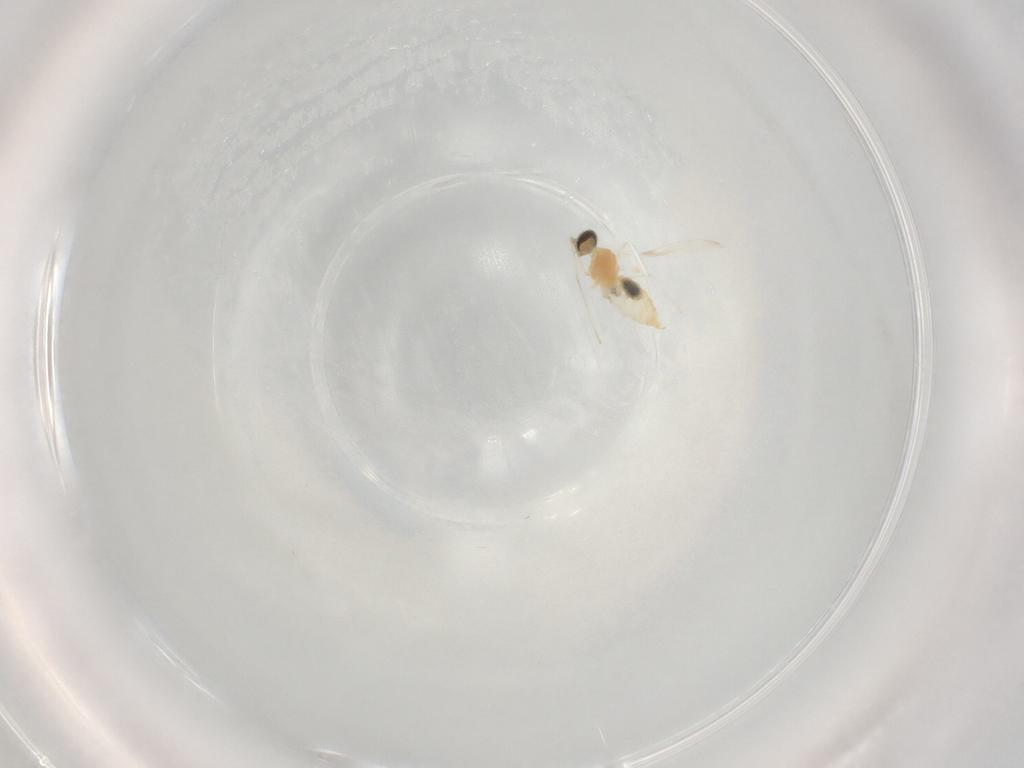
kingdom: Animalia
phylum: Arthropoda
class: Insecta
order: Diptera
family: Cecidomyiidae
